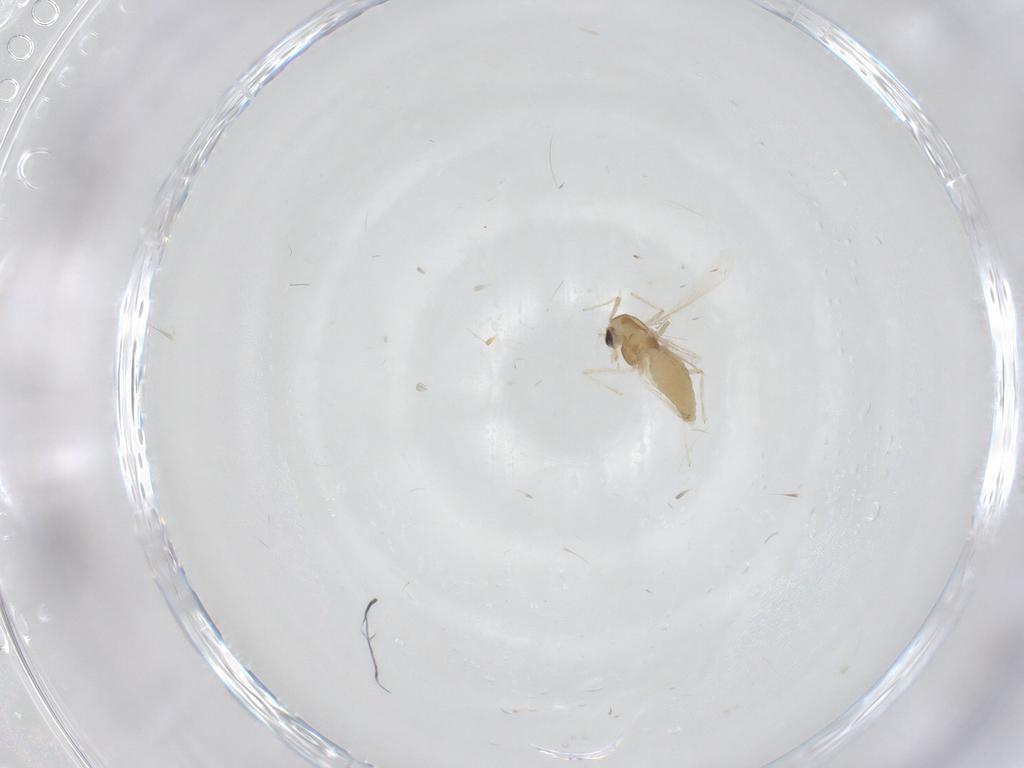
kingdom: Animalia
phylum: Arthropoda
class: Insecta
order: Diptera
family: Chironomidae
